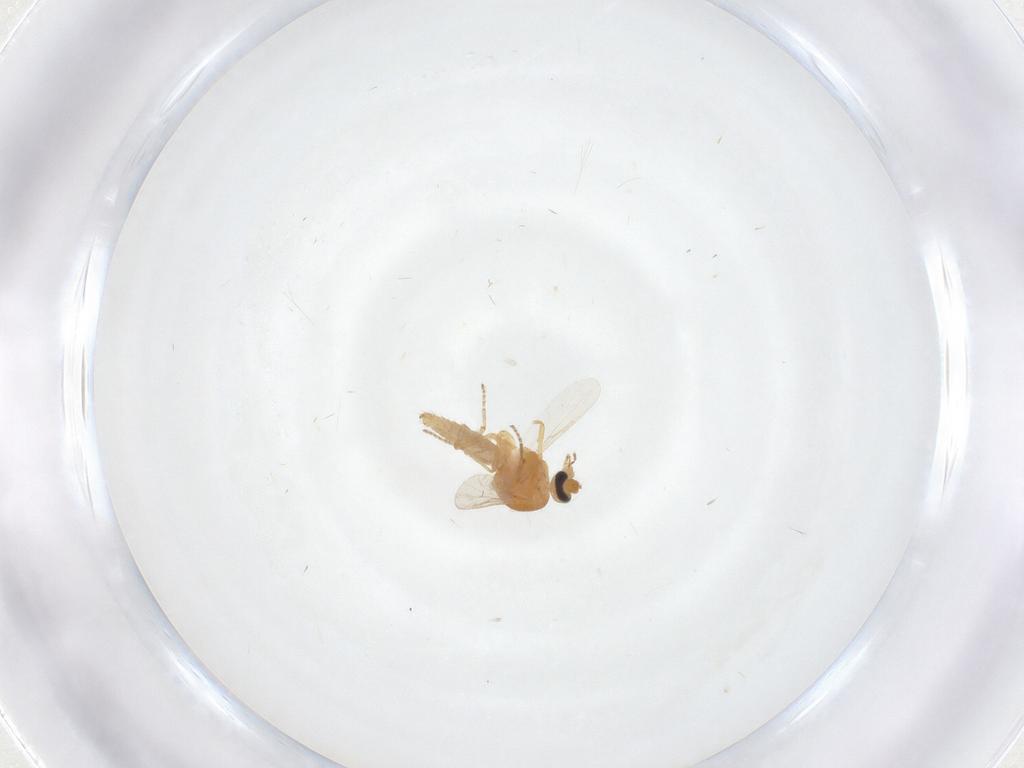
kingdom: Animalia
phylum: Arthropoda
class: Insecta
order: Diptera
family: Ceratopogonidae
